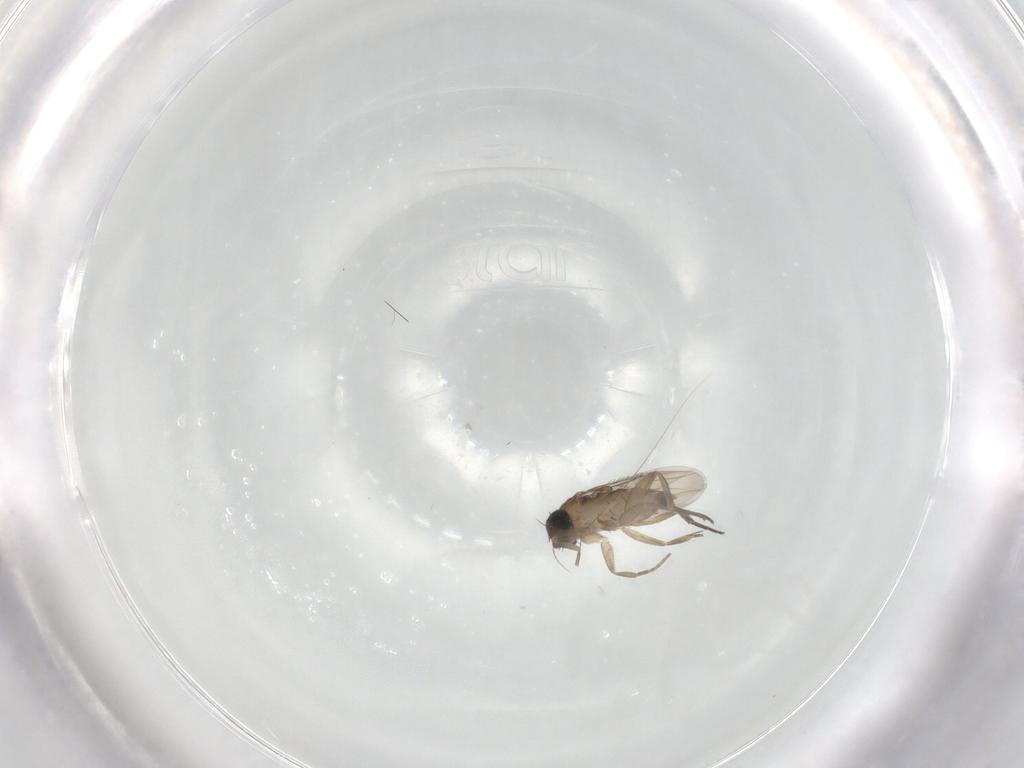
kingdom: Animalia
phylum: Arthropoda
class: Insecta
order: Diptera
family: Phoridae
